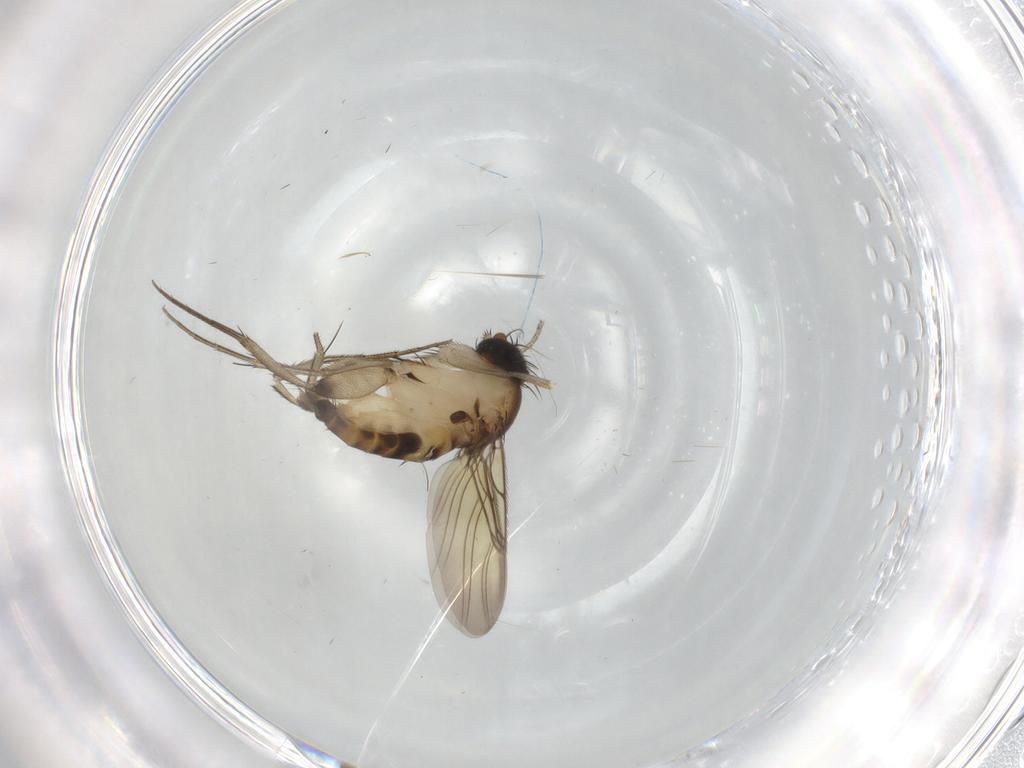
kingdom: Animalia
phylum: Arthropoda
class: Insecta
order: Diptera
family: Phoridae
